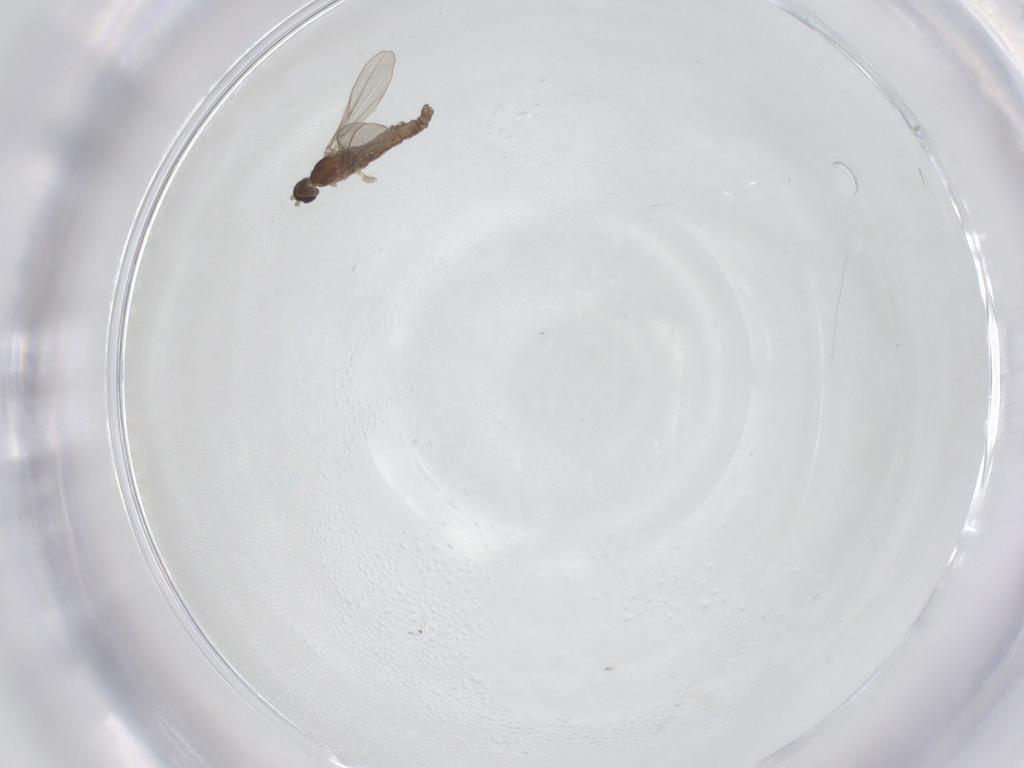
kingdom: Animalia
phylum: Arthropoda
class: Insecta
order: Diptera
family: Cecidomyiidae
